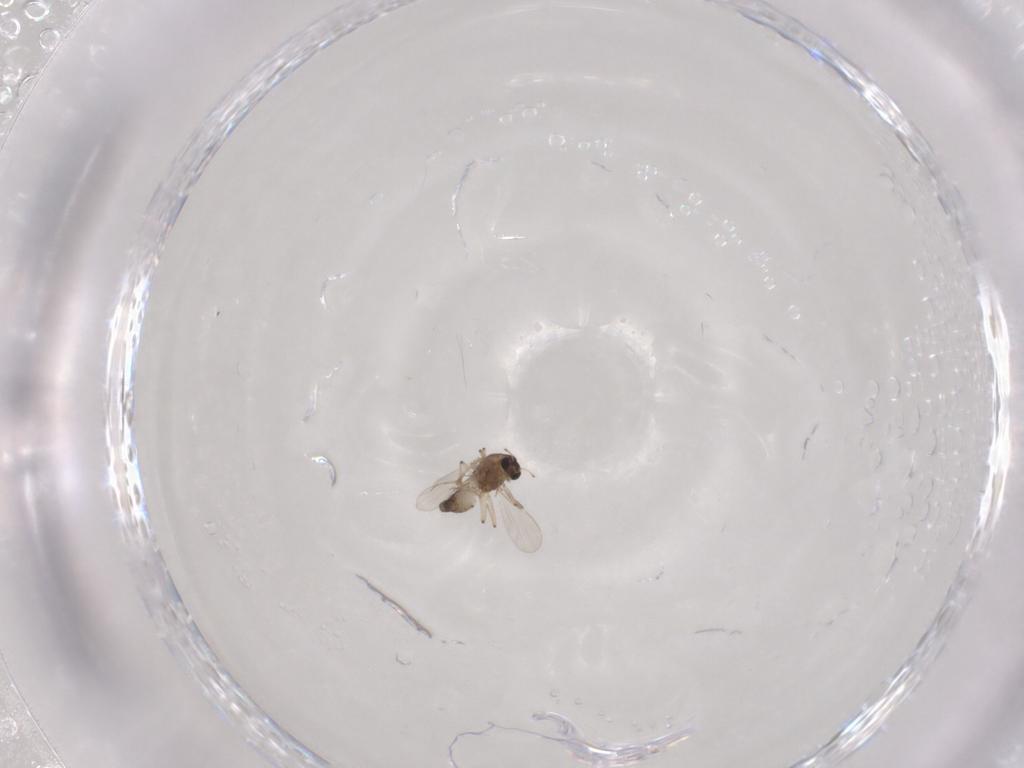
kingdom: Animalia
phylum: Arthropoda
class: Insecta
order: Diptera
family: Chironomidae
